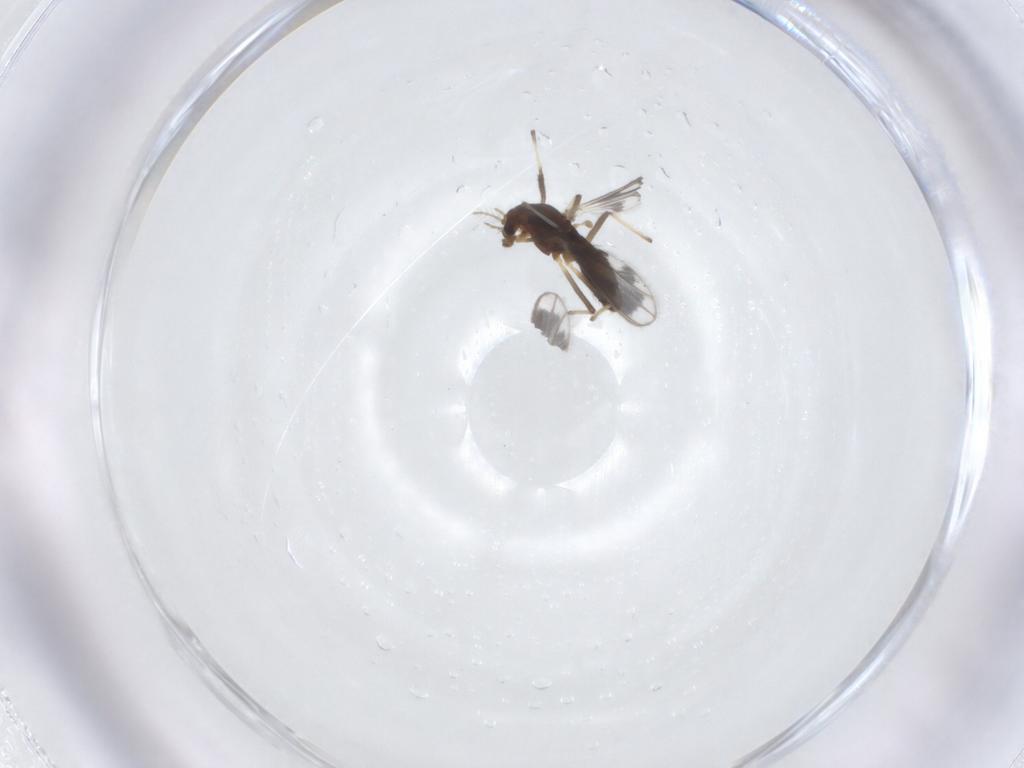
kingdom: Animalia
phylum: Arthropoda
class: Insecta
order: Diptera
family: Chironomidae
